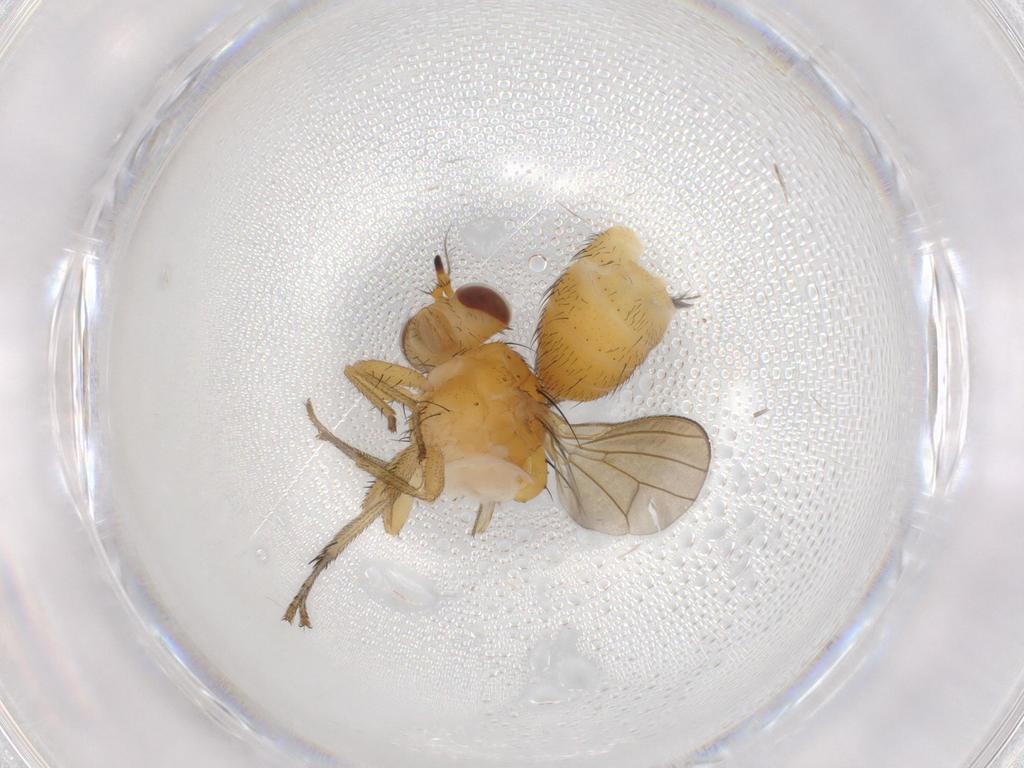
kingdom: Animalia
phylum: Arthropoda
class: Insecta
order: Diptera
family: Lauxaniidae
